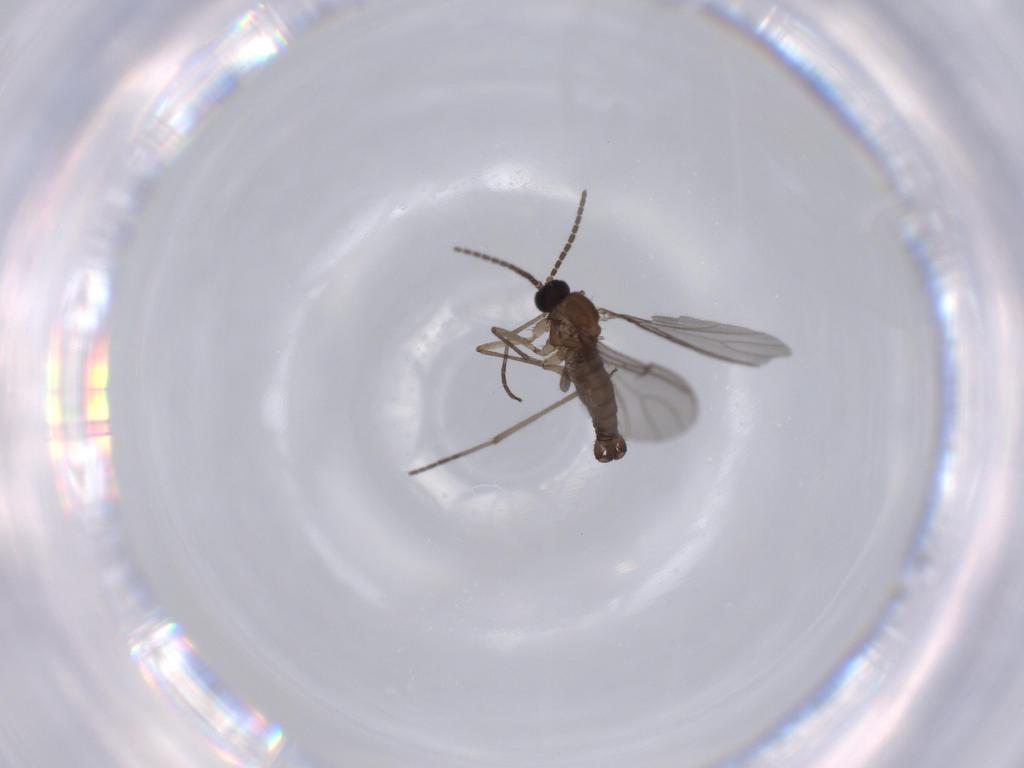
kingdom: Animalia
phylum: Arthropoda
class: Insecta
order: Diptera
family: Sciaridae
